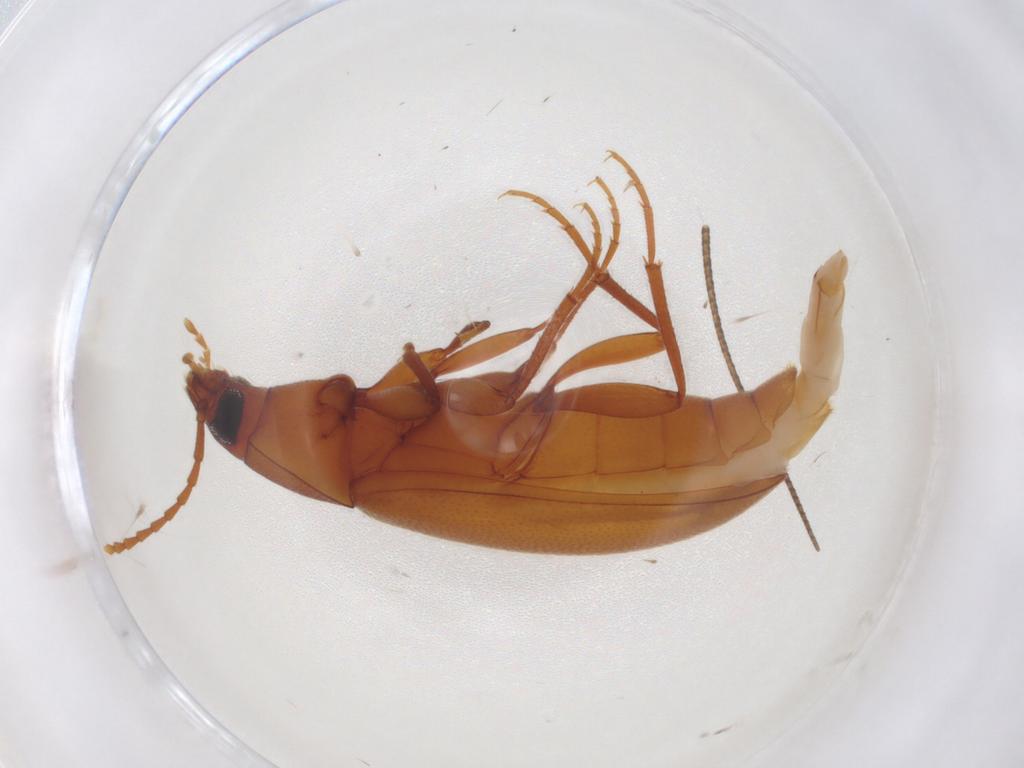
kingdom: Animalia
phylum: Arthropoda
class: Insecta
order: Coleoptera
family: Tenebrionidae
